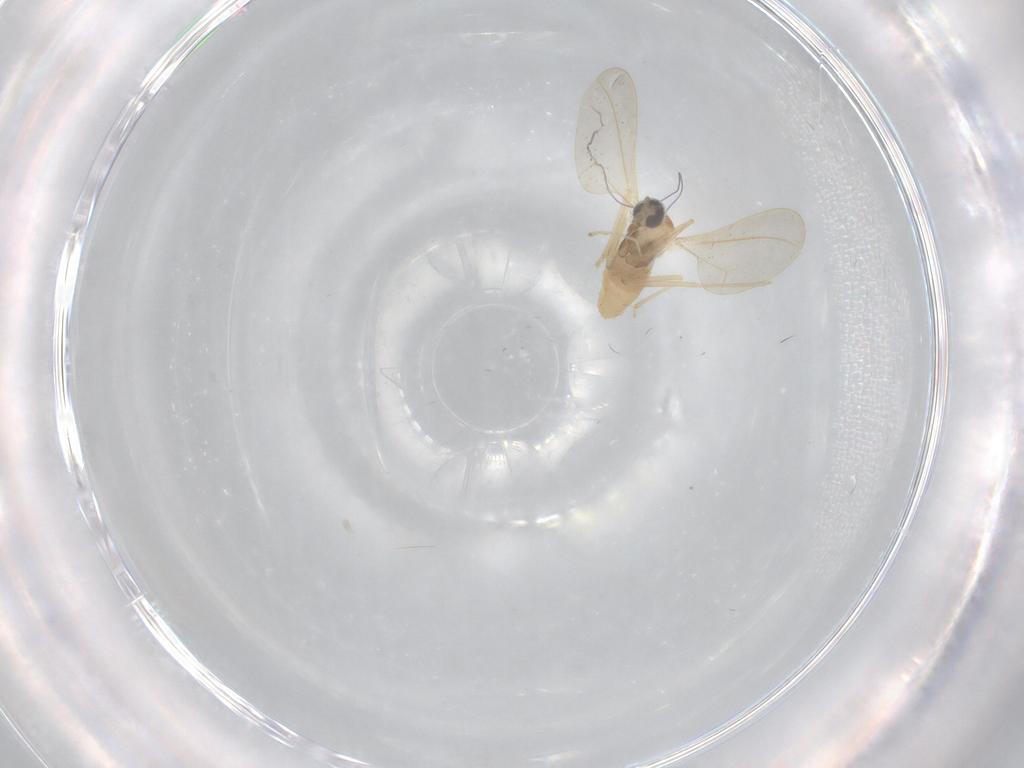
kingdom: Animalia
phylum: Arthropoda
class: Insecta
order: Diptera
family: Cecidomyiidae
